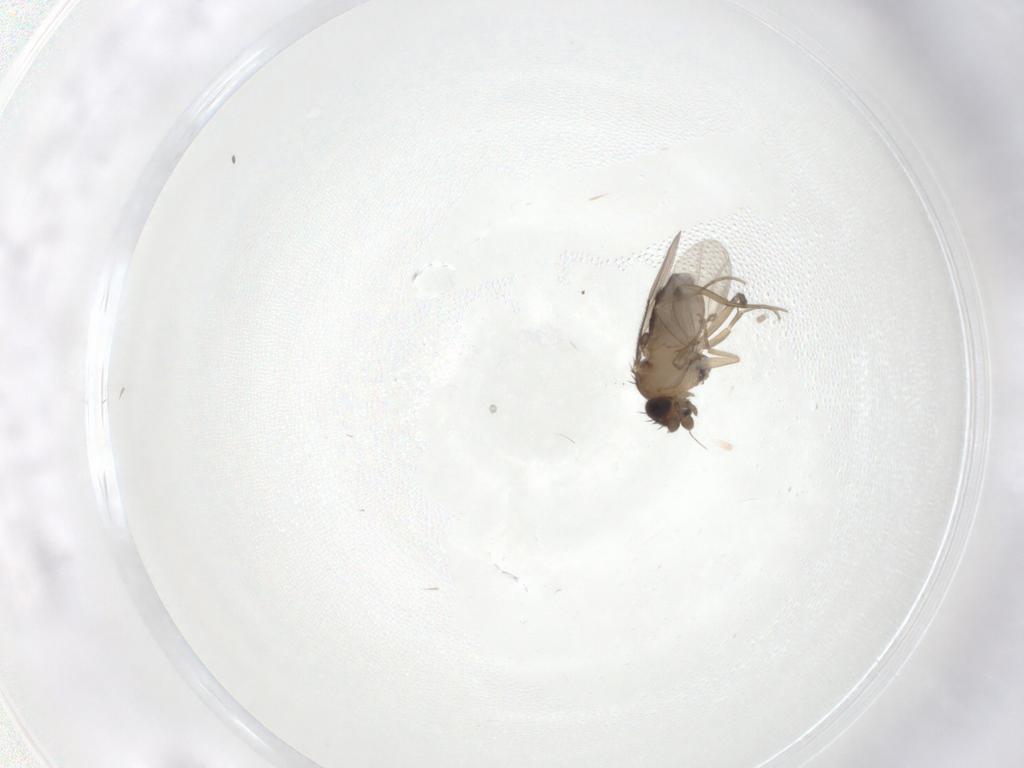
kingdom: Animalia
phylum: Arthropoda
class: Insecta
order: Diptera
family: Phoridae
